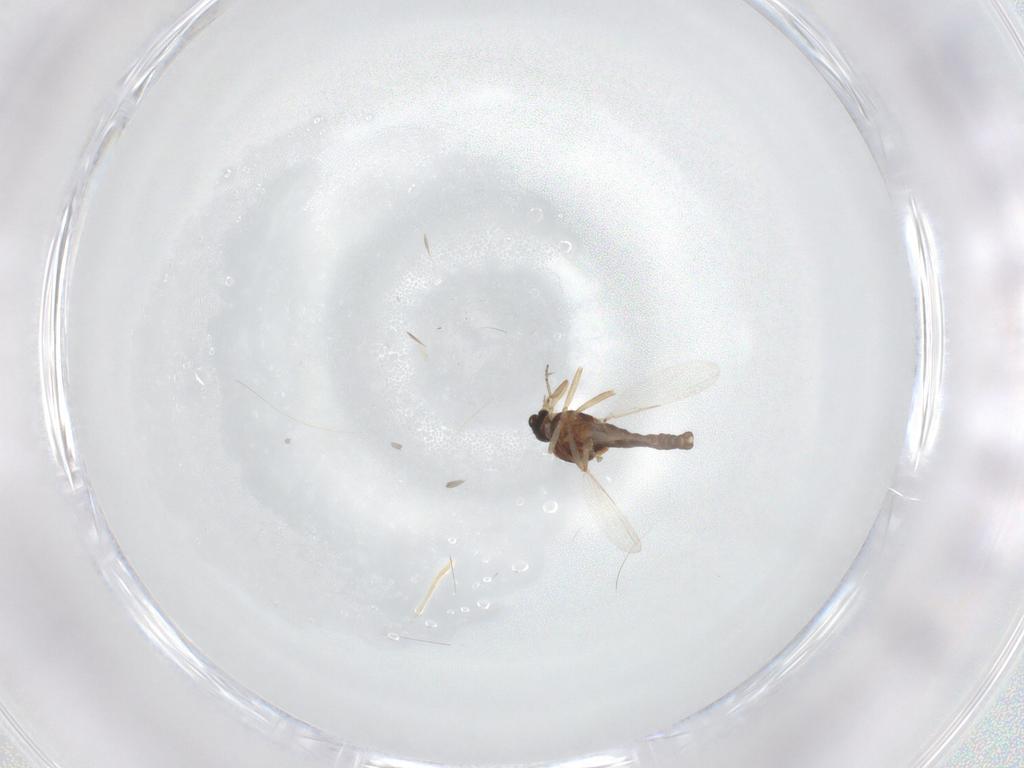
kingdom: Animalia
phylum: Arthropoda
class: Insecta
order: Diptera
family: Ceratopogonidae
